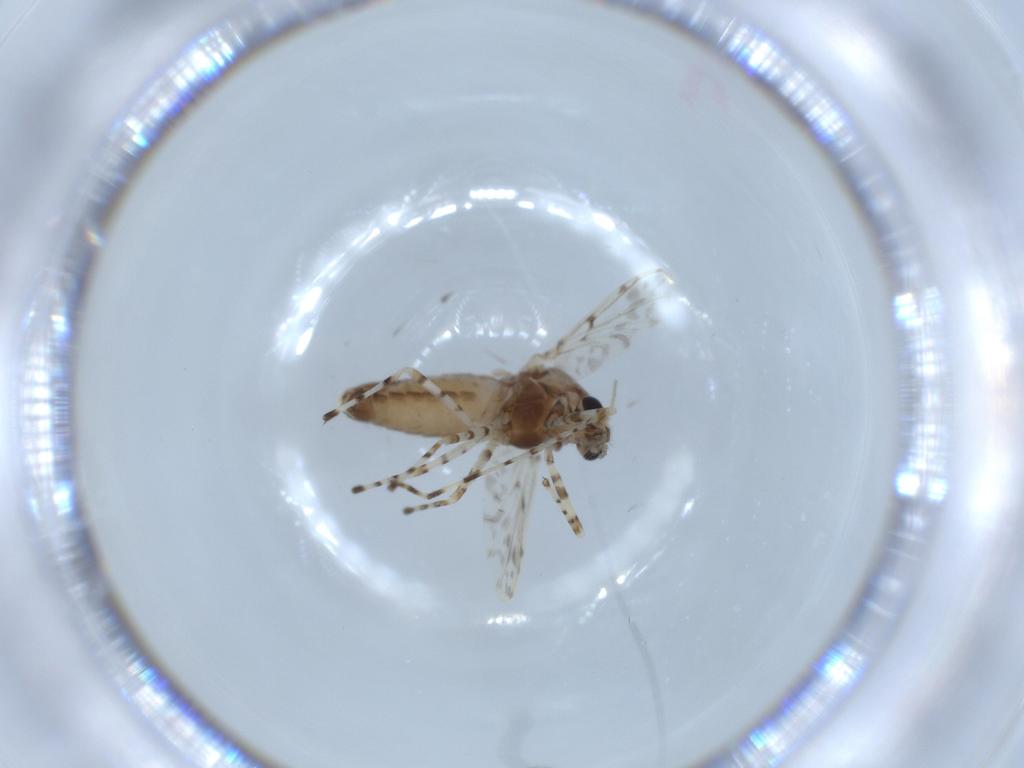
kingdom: Animalia
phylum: Arthropoda
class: Insecta
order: Diptera
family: Chironomidae
